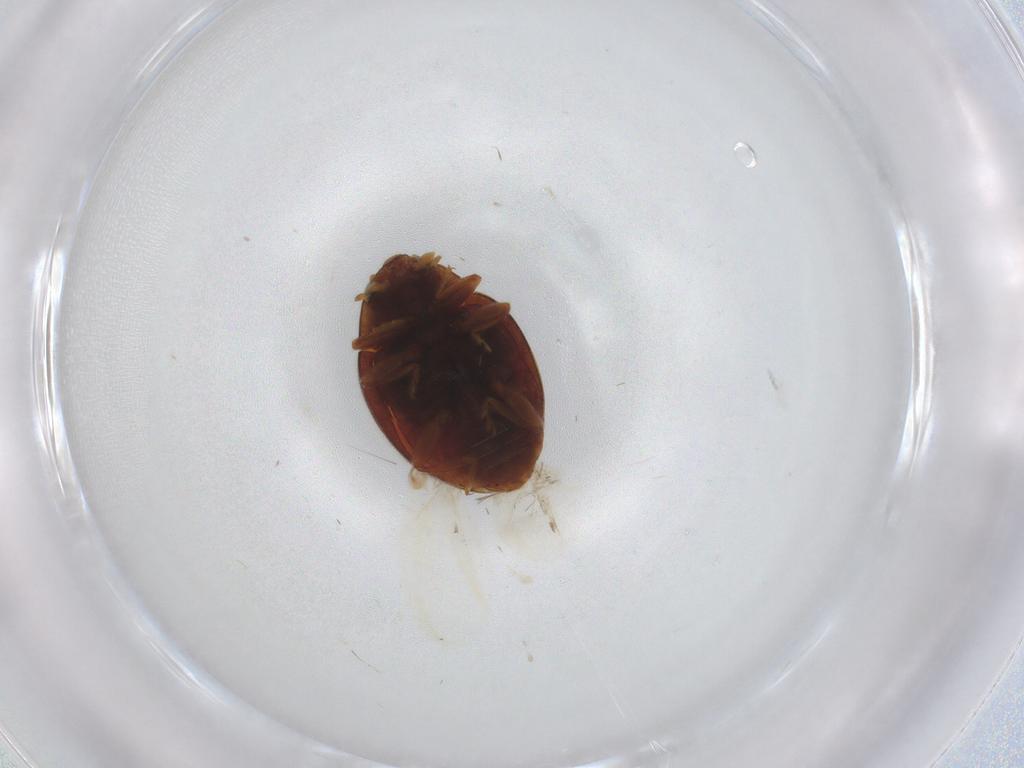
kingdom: Animalia
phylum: Arthropoda
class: Insecta
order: Coleoptera
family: Coccinellidae
